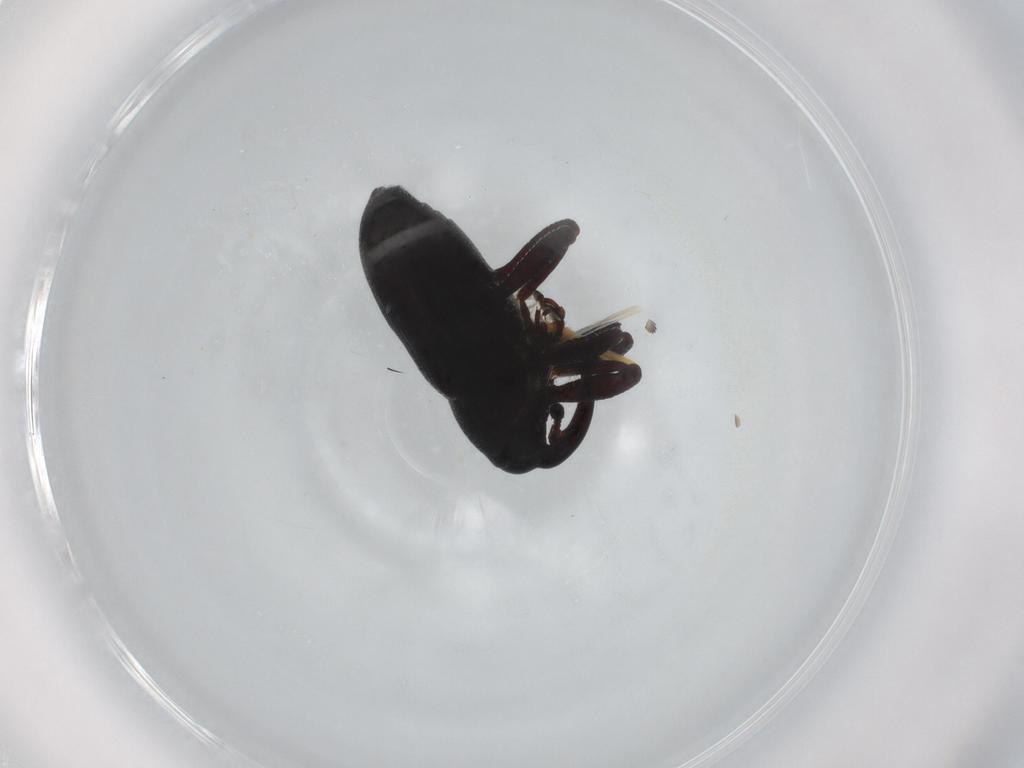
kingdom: Animalia
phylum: Arthropoda
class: Insecta
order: Coleoptera
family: Curculionidae
